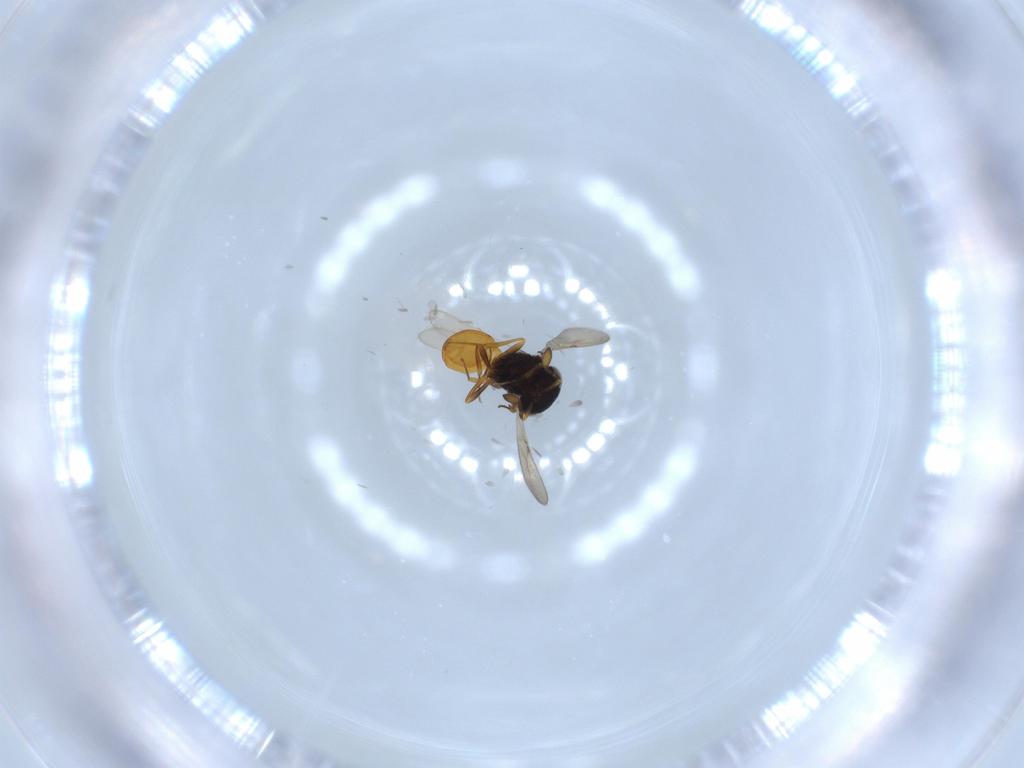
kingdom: Animalia
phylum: Arthropoda
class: Insecta
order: Hymenoptera
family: Scelionidae
